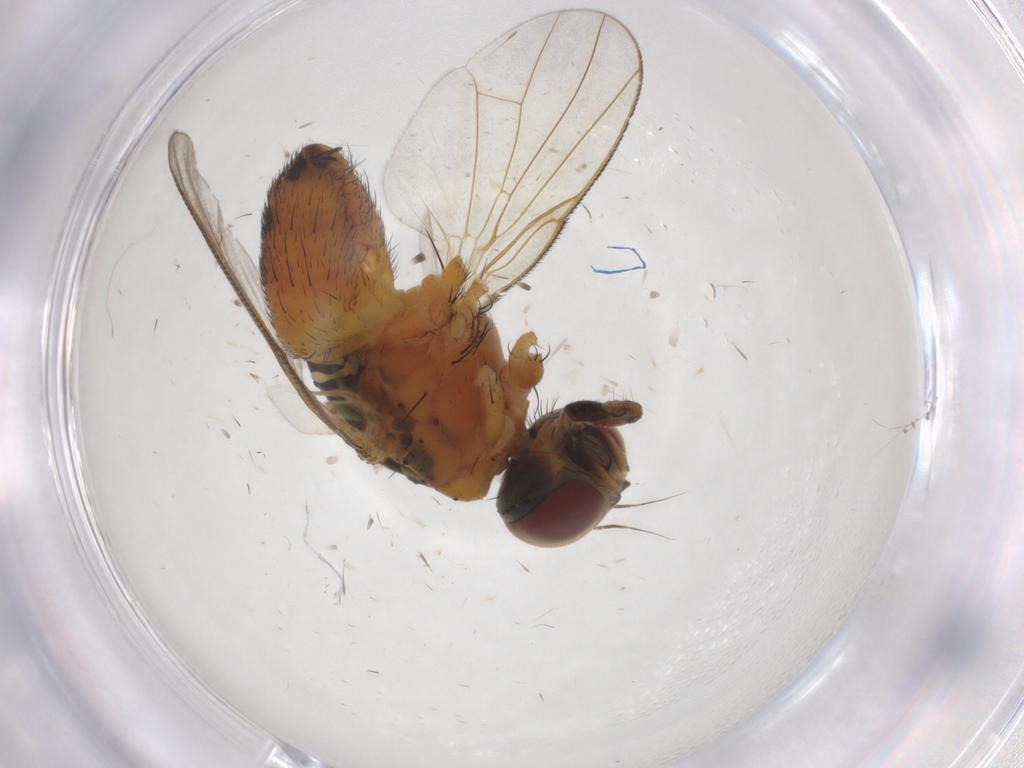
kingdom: Animalia
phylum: Arthropoda
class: Insecta
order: Diptera
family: Muscidae
